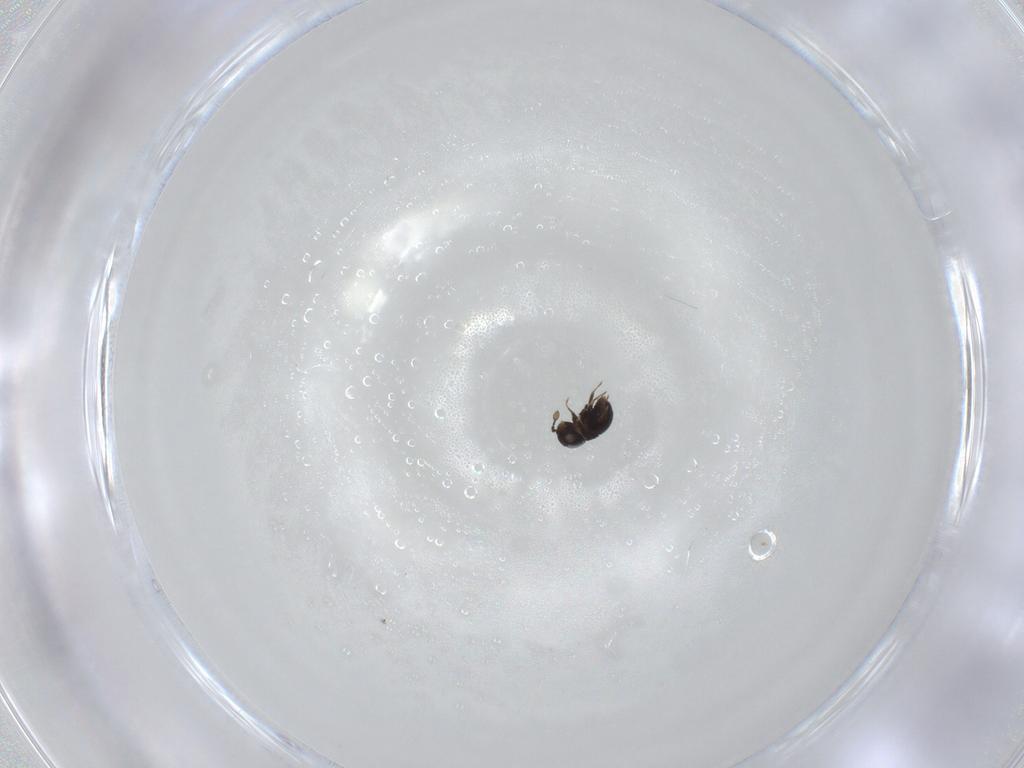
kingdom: Animalia
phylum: Arthropoda
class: Insecta
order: Hymenoptera
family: Scelionidae
